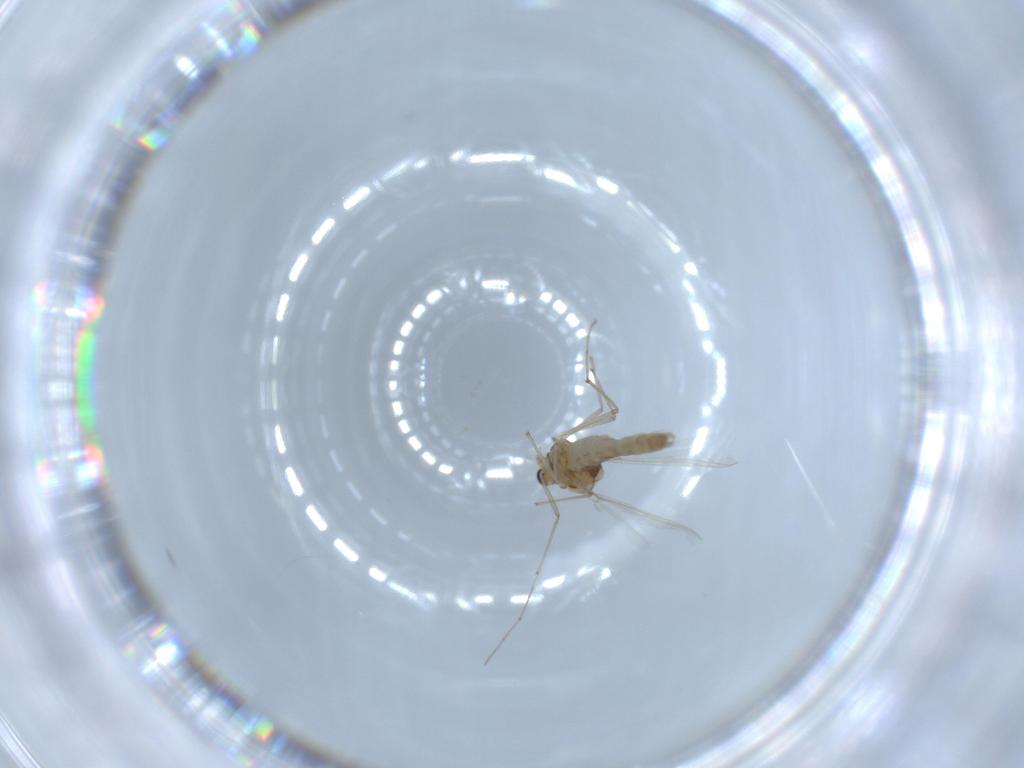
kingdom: Animalia
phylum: Arthropoda
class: Insecta
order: Diptera
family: Chironomidae
